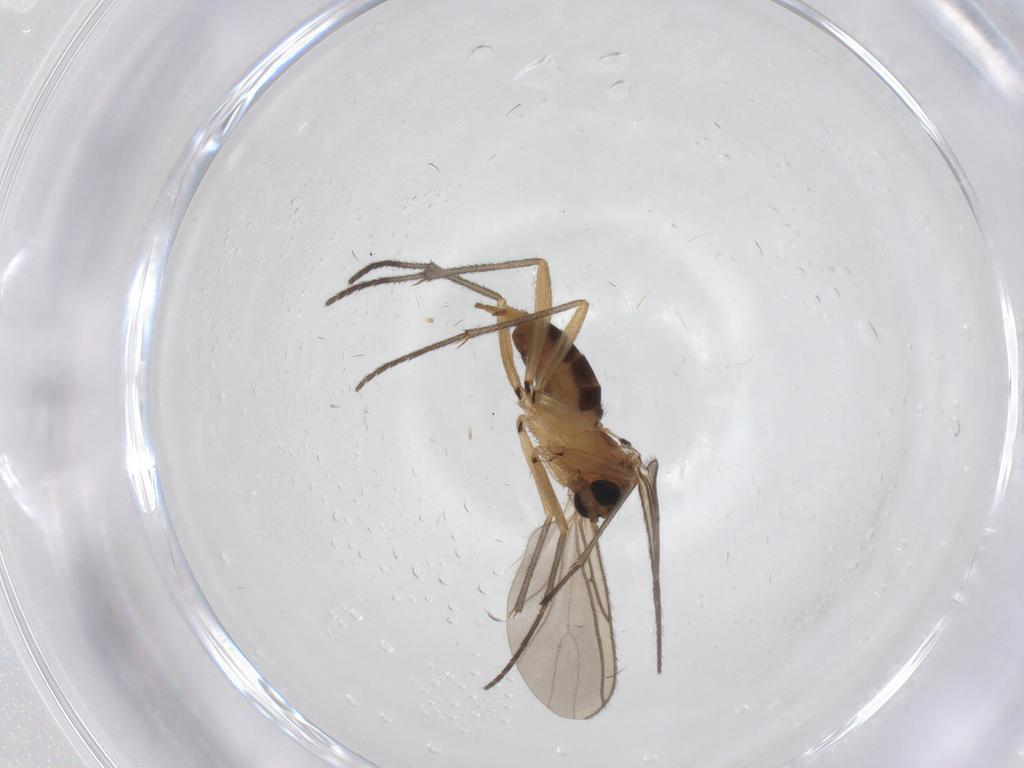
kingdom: Animalia
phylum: Arthropoda
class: Insecta
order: Diptera
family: Sciaridae
